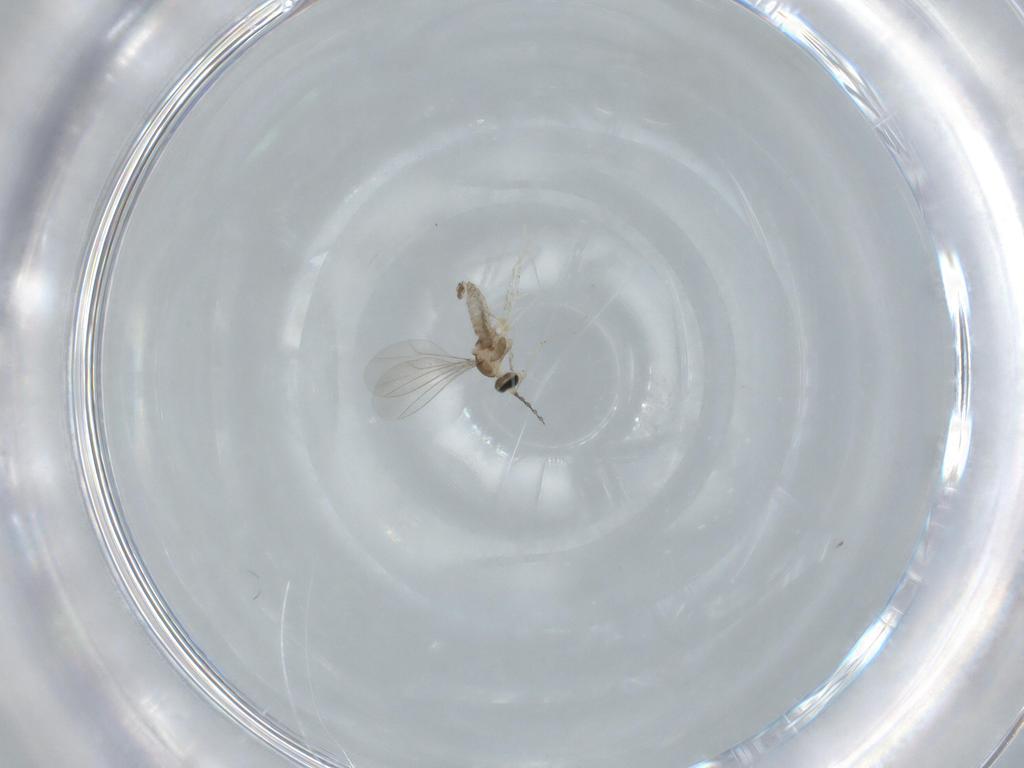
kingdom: Animalia
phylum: Arthropoda
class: Insecta
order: Diptera
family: Cecidomyiidae
